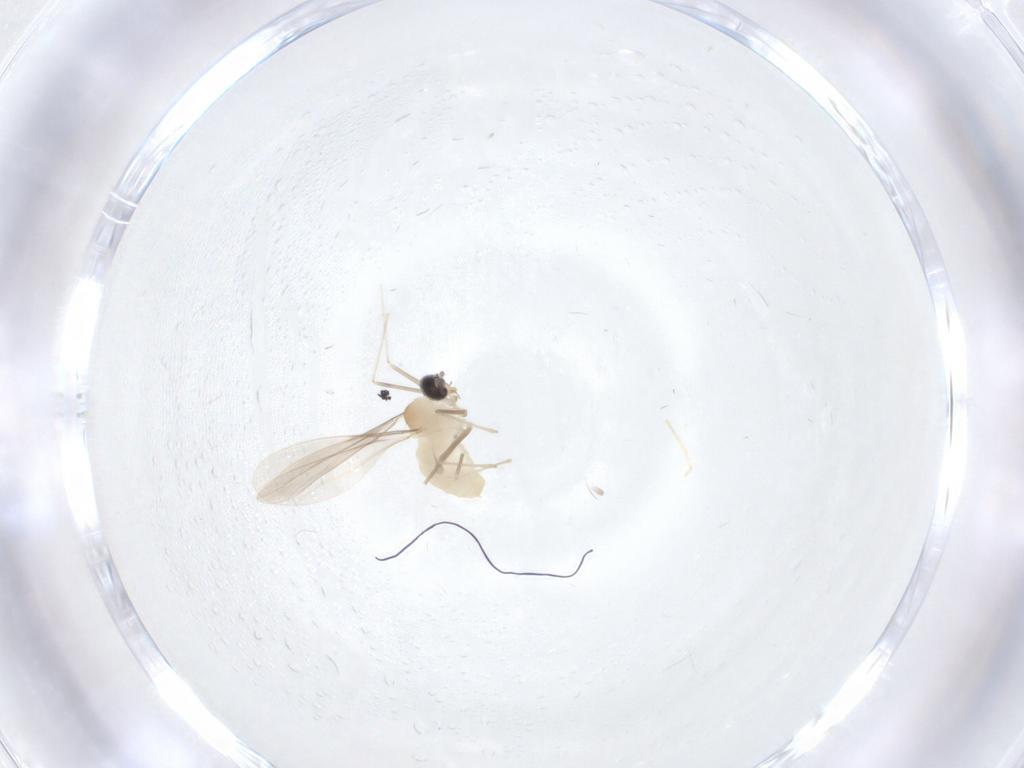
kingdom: Animalia
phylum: Arthropoda
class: Insecta
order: Diptera
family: Cecidomyiidae
